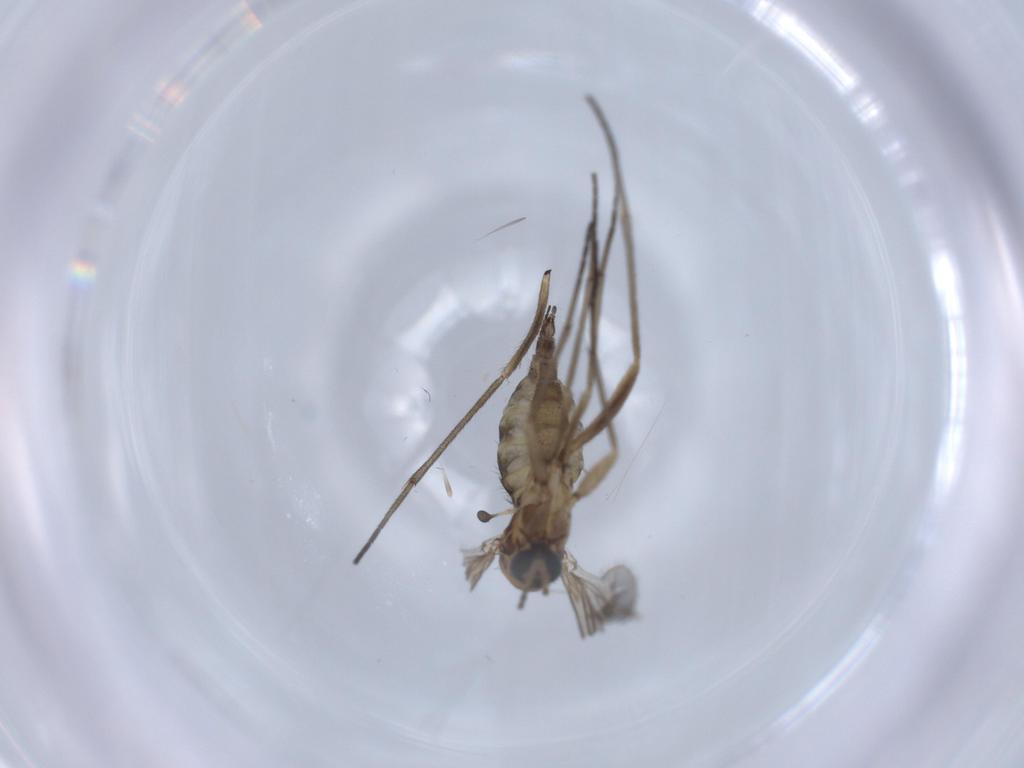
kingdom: Animalia
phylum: Arthropoda
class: Insecta
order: Diptera
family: Sciaridae
